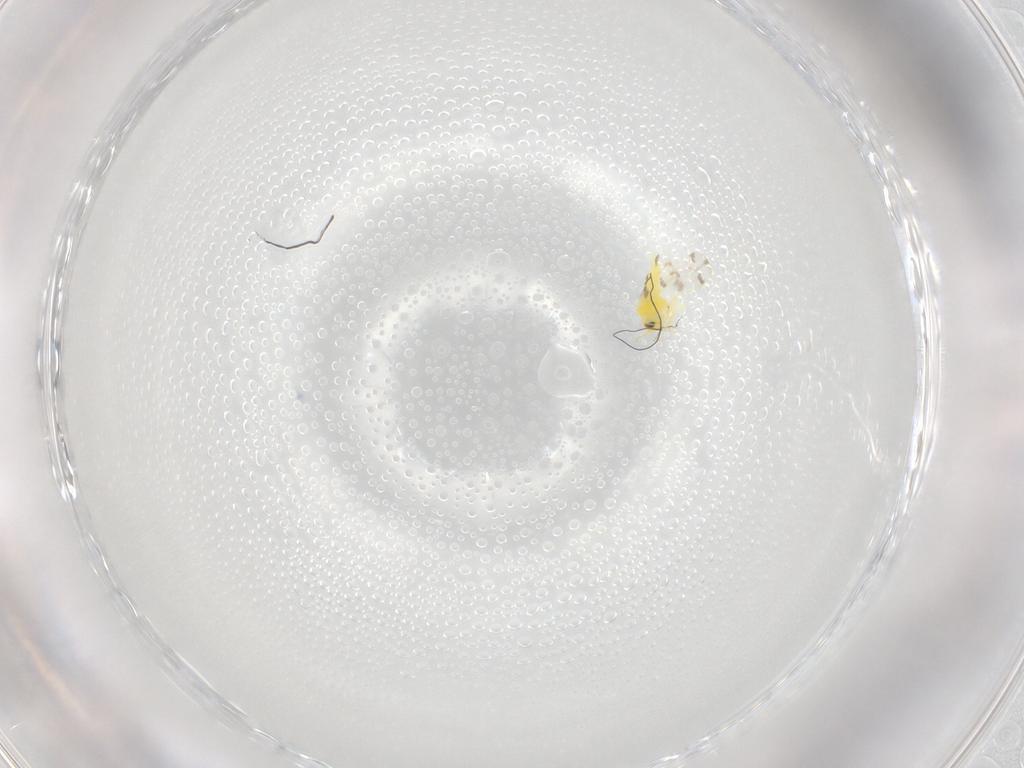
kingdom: Animalia
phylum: Arthropoda
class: Insecta
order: Hemiptera
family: Aleyrodidae
